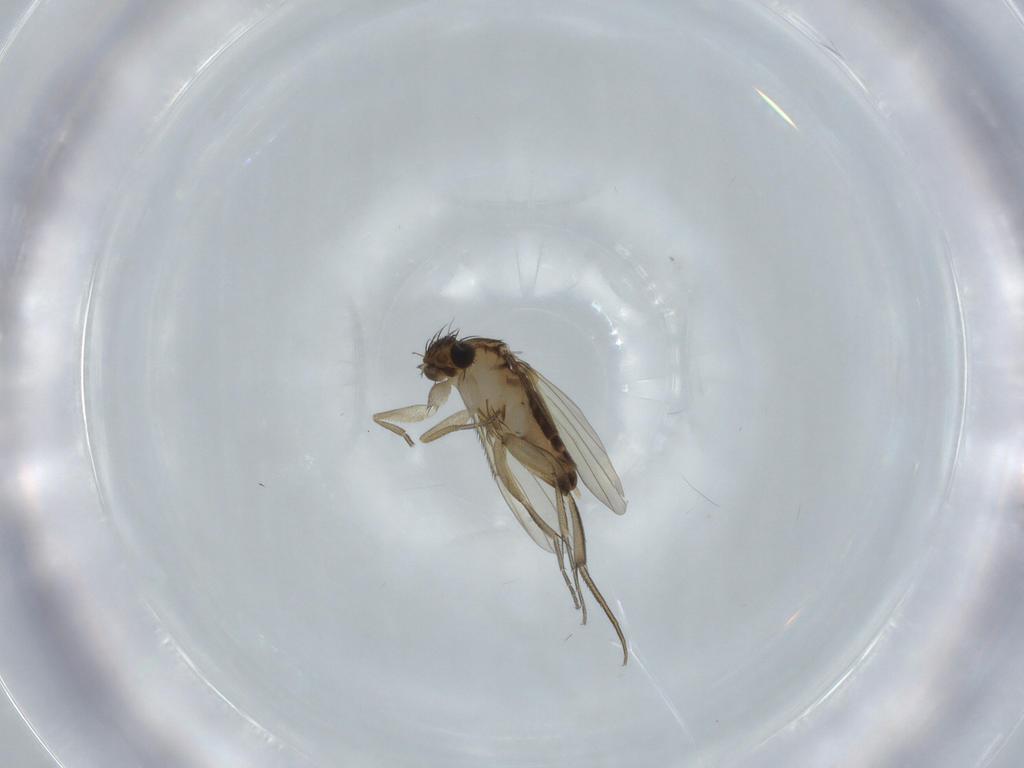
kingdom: Animalia
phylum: Arthropoda
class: Insecta
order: Diptera
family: Phoridae
